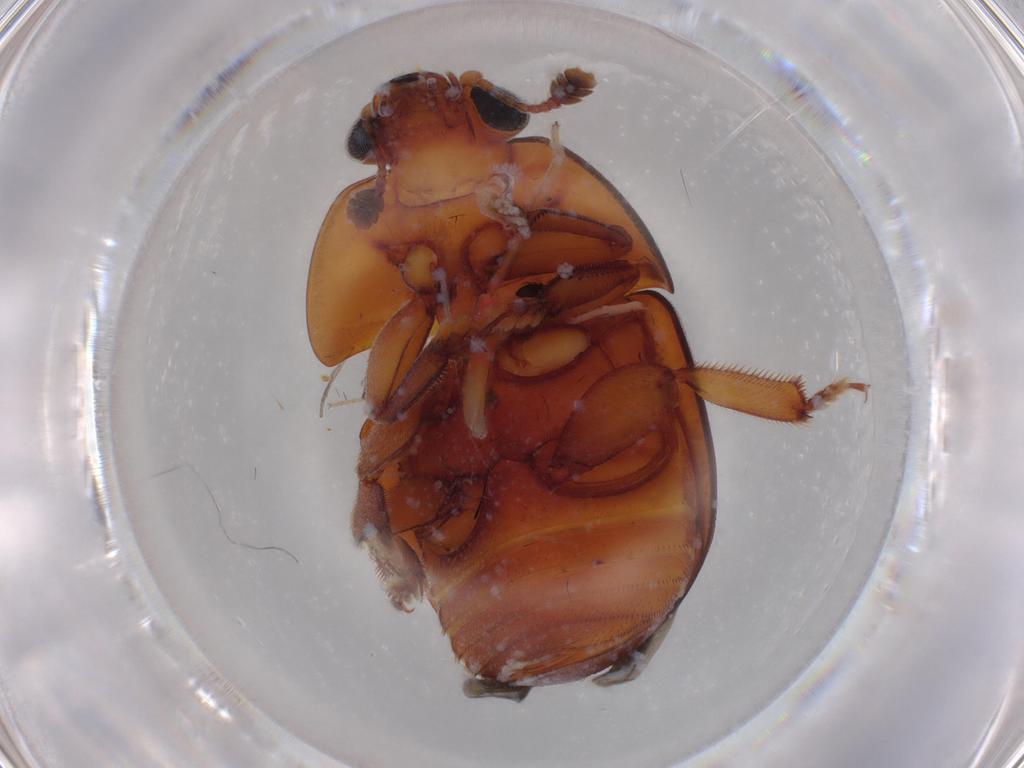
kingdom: Animalia
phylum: Arthropoda
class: Insecta
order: Coleoptera
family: Nitidulidae
